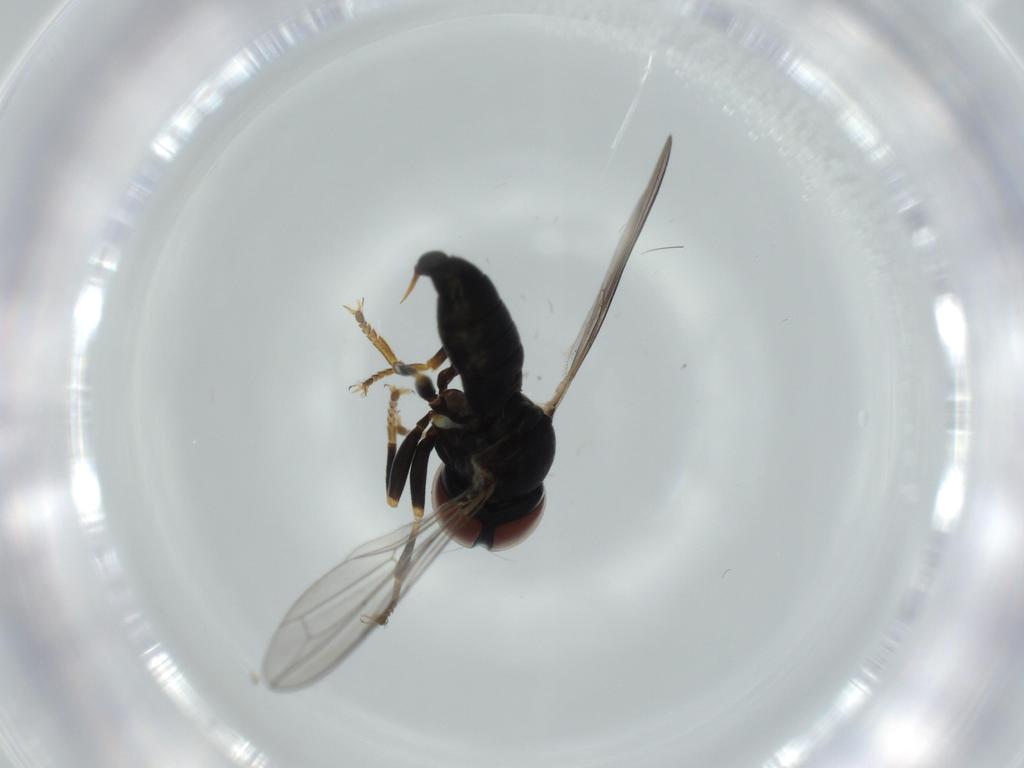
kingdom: Animalia
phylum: Arthropoda
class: Insecta
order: Diptera
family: Pipunculidae
